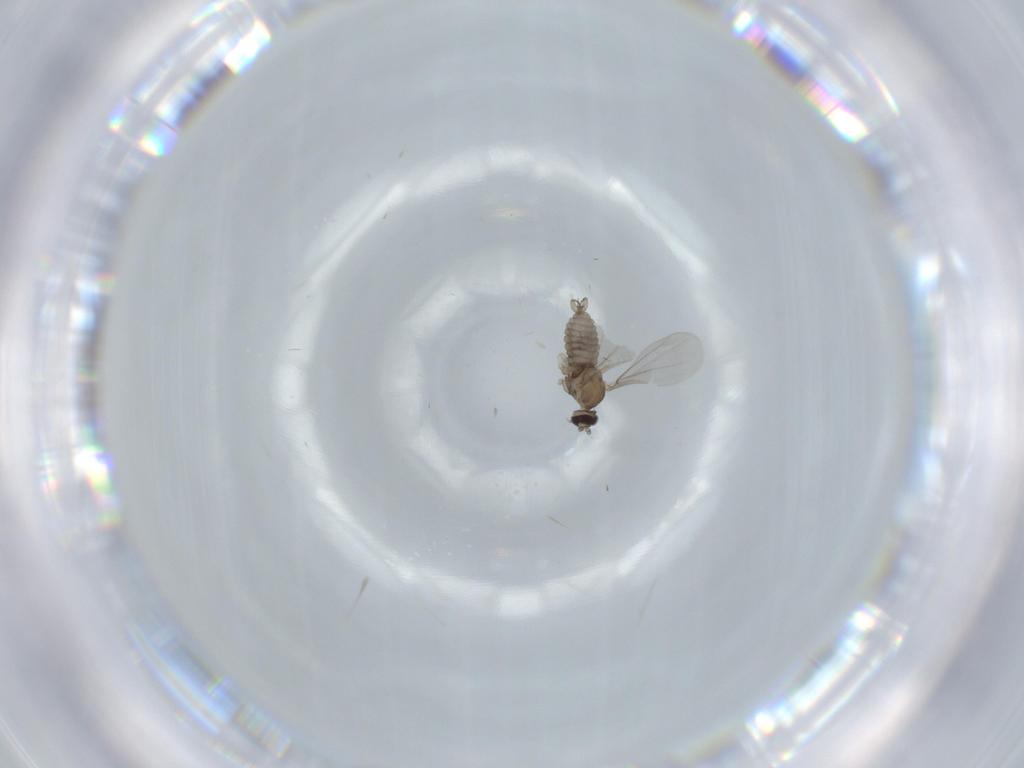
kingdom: Animalia
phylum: Arthropoda
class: Insecta
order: Diptera
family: Cecidomyiidae
